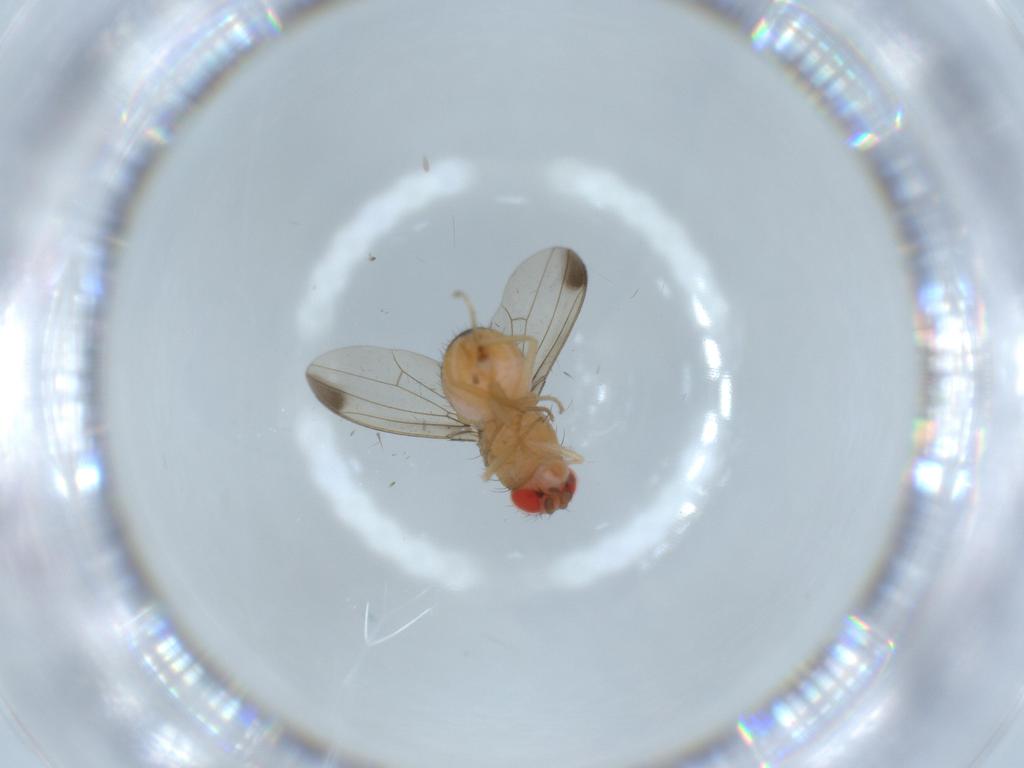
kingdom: Animalia
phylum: Arthropoda
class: Insecta
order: Diptera
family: Drosophilidae
